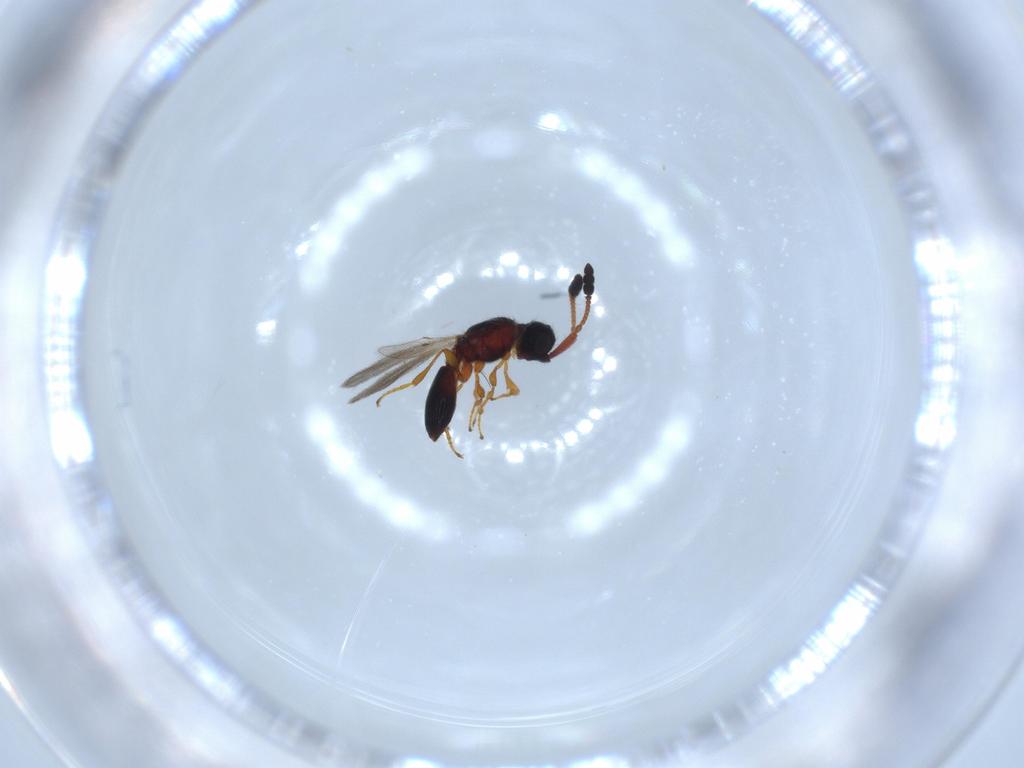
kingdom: Animalia
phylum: Arthropoda
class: Insecta
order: Hymenoptera
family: Diapriidae
